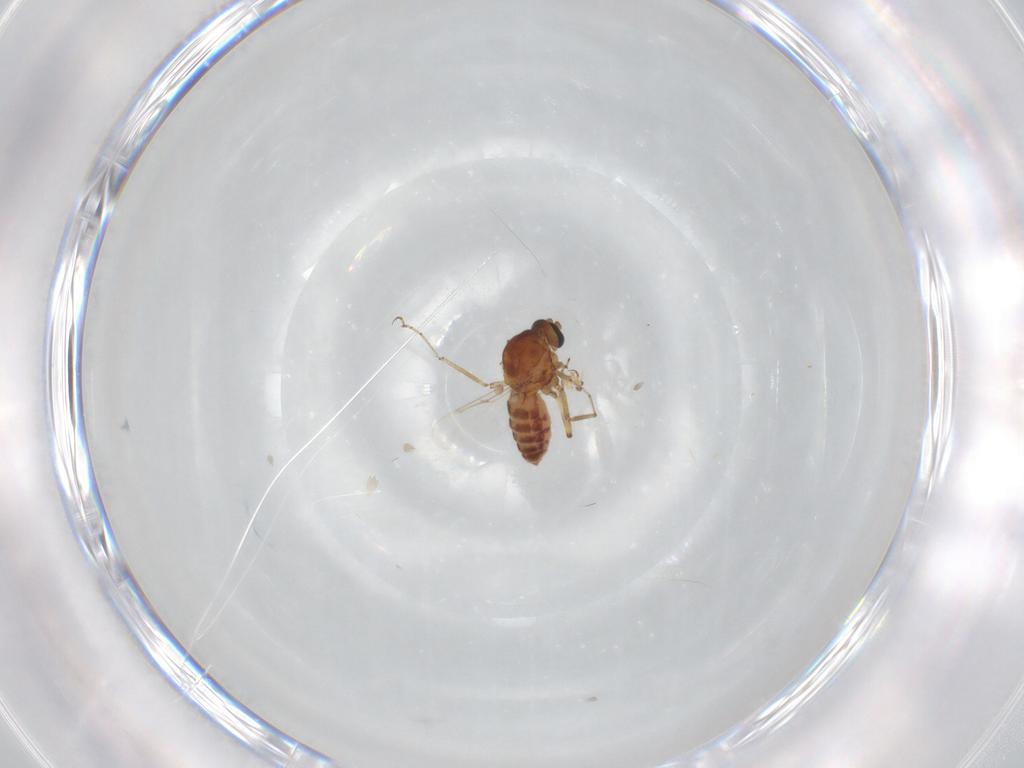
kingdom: Animalia
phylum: Arthropoda
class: Insecta
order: Diptera
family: Ceratopogonidae
